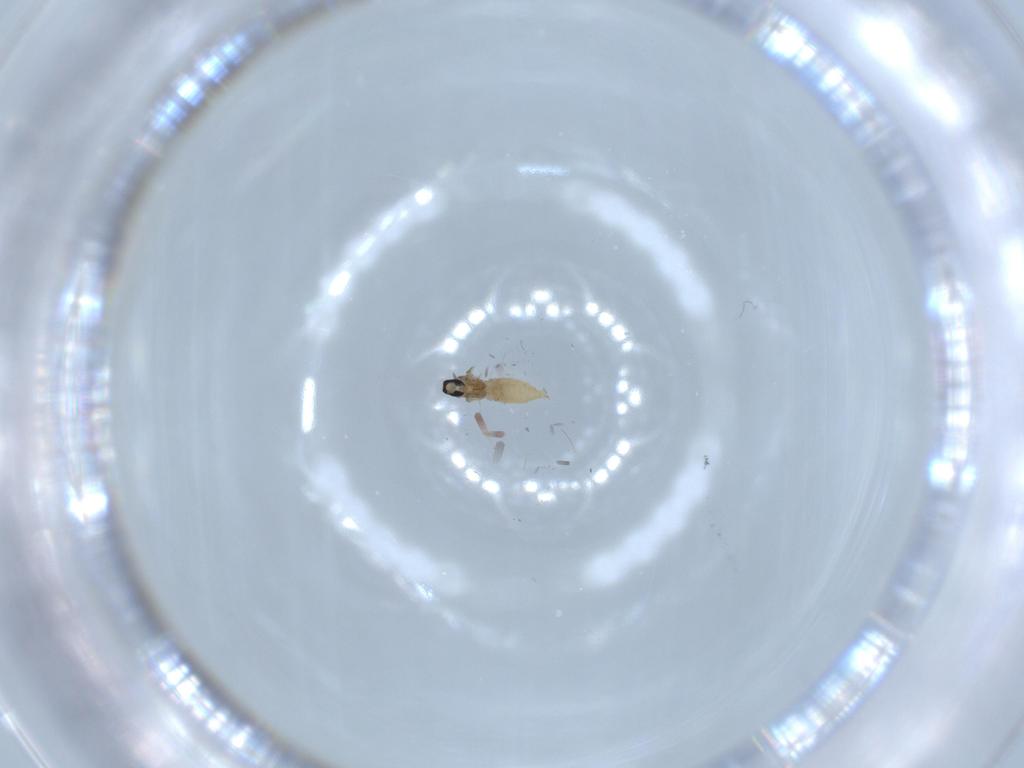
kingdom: Animalia
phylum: Arthropoda
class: Insecta
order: Diptera
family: Cecidomyiidae
